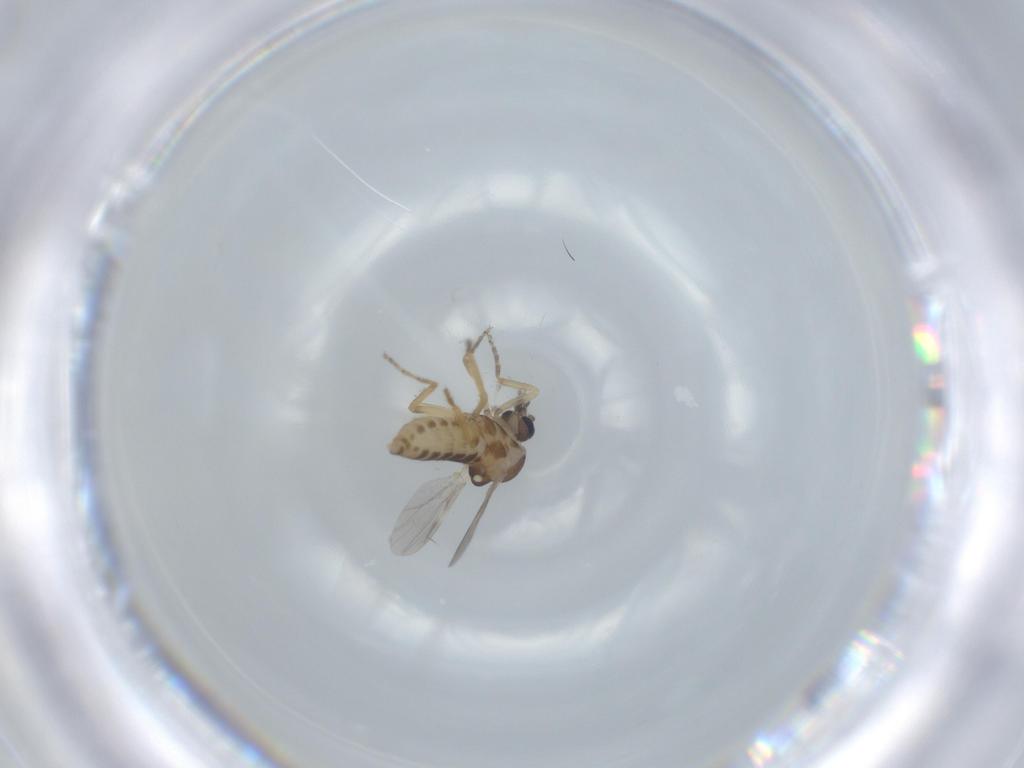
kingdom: Animalia
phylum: Arthropoda
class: Insecta
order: Diptera
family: Ceratopogonidae
